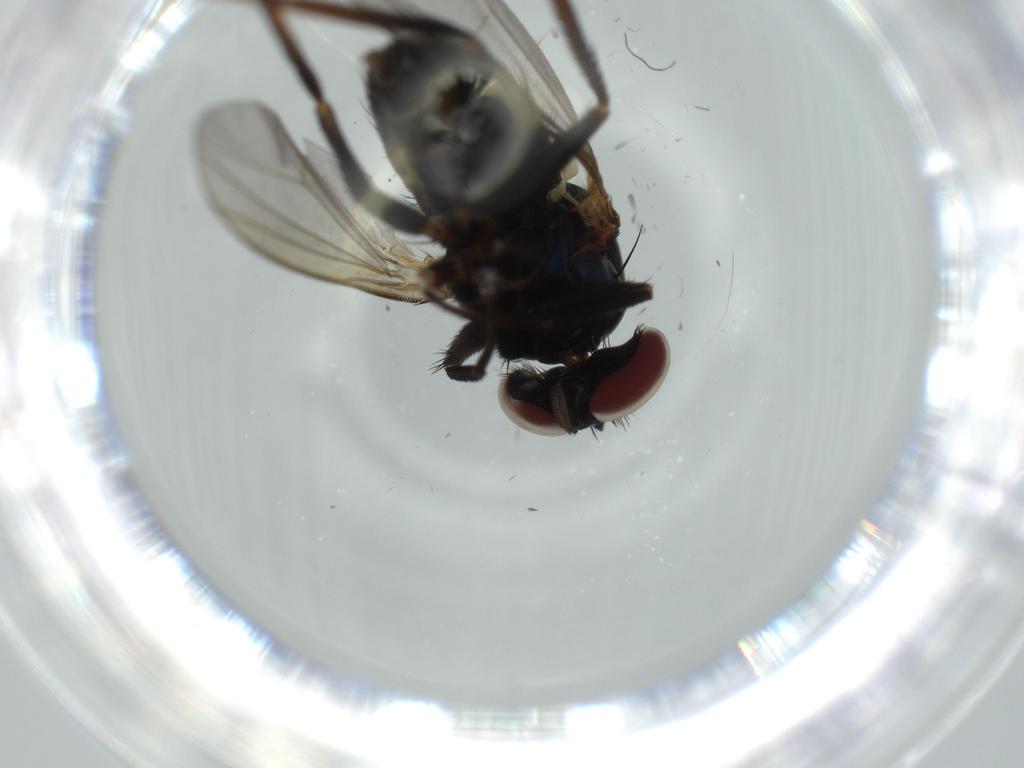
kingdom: Animalia
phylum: Arthropoda
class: Insecta
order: Diptera
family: Dolichopodidae
